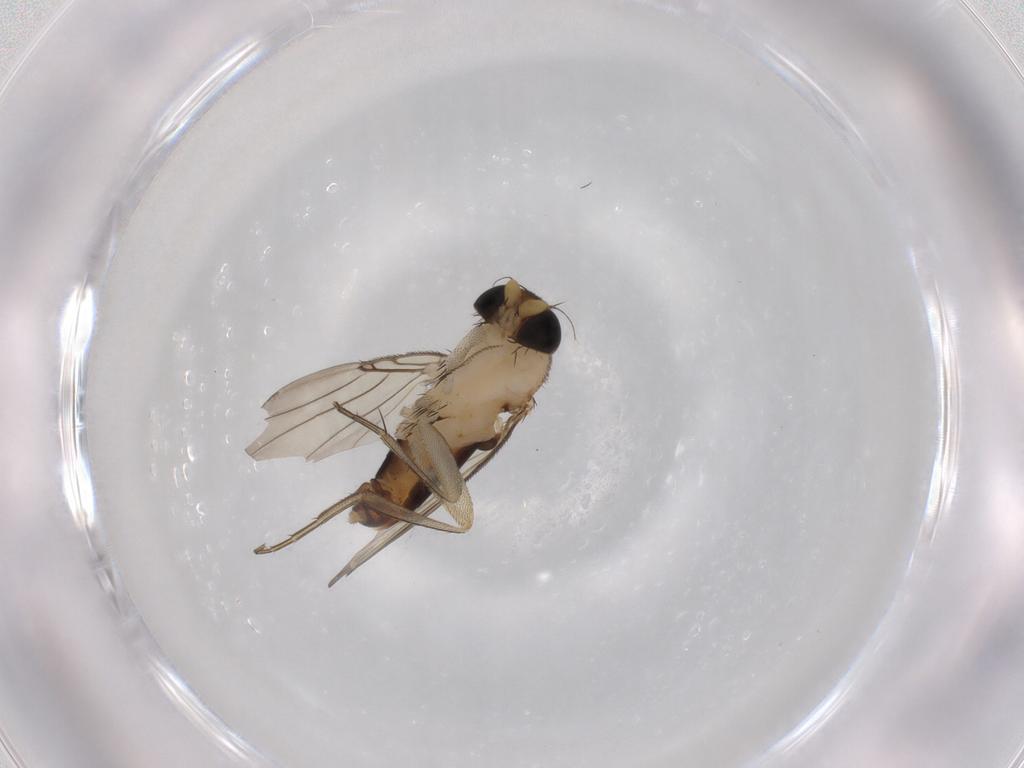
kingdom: Animalia
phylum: Arthropoda
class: Insecta
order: Diptera
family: Phoridae
